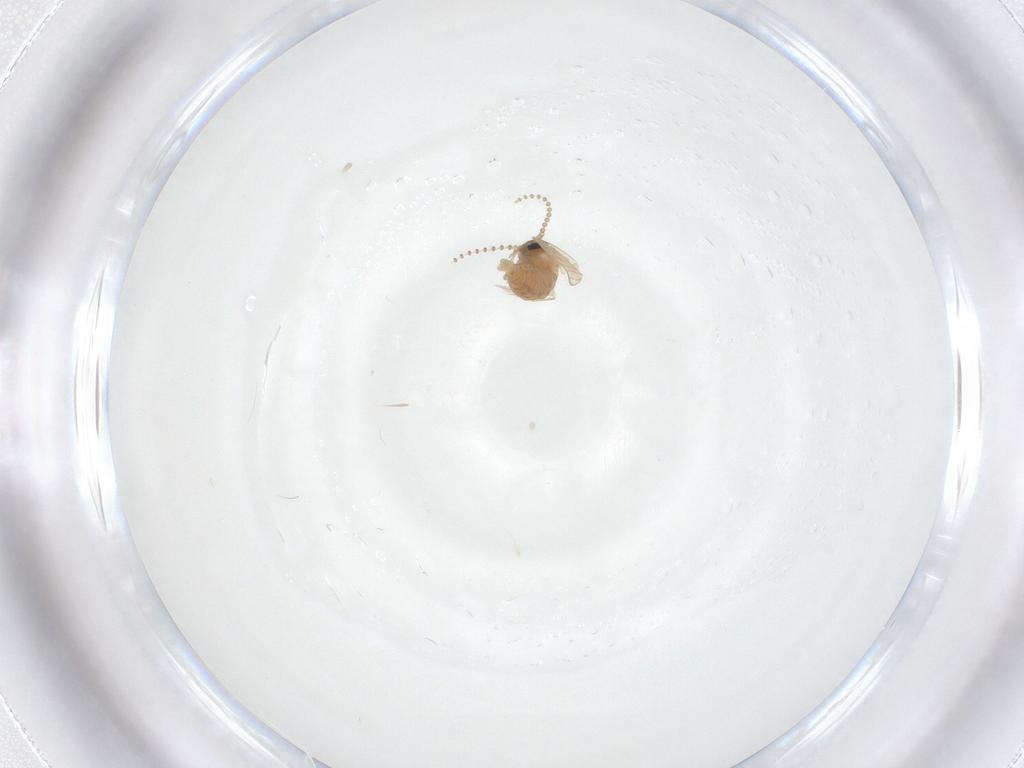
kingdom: Animalia
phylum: Arthropoda
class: Insecta
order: Diptera
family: Psychodidae
